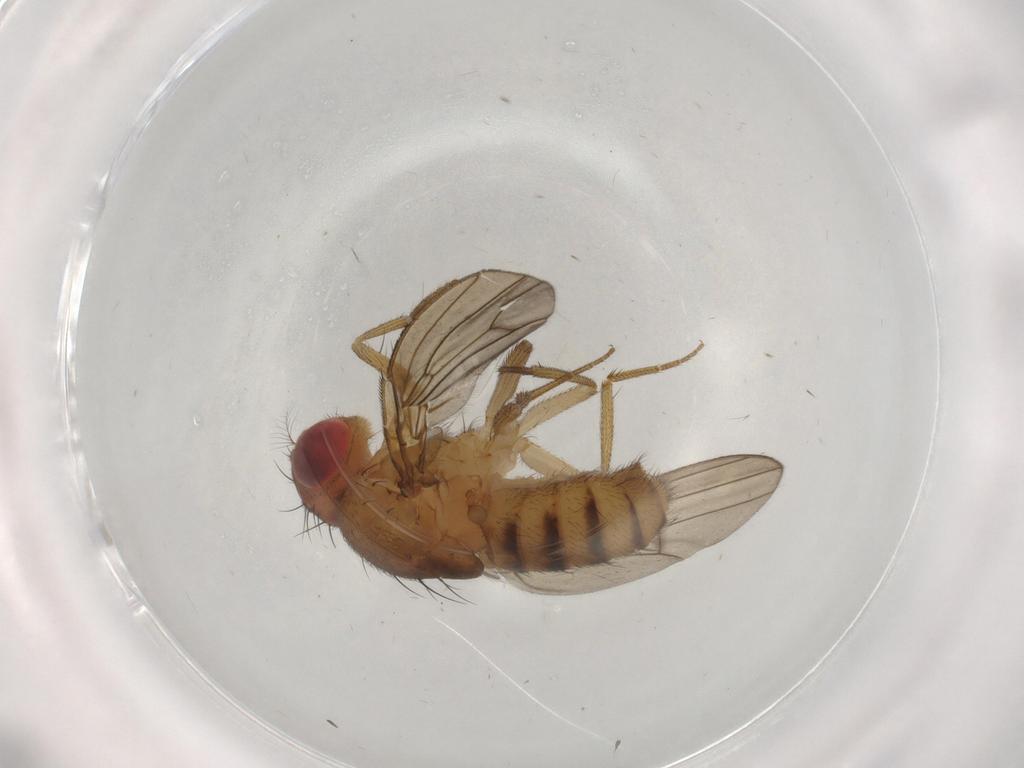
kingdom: Animalia
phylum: Arthropoda
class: Insecta
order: Diptera
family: Drosophilidae
